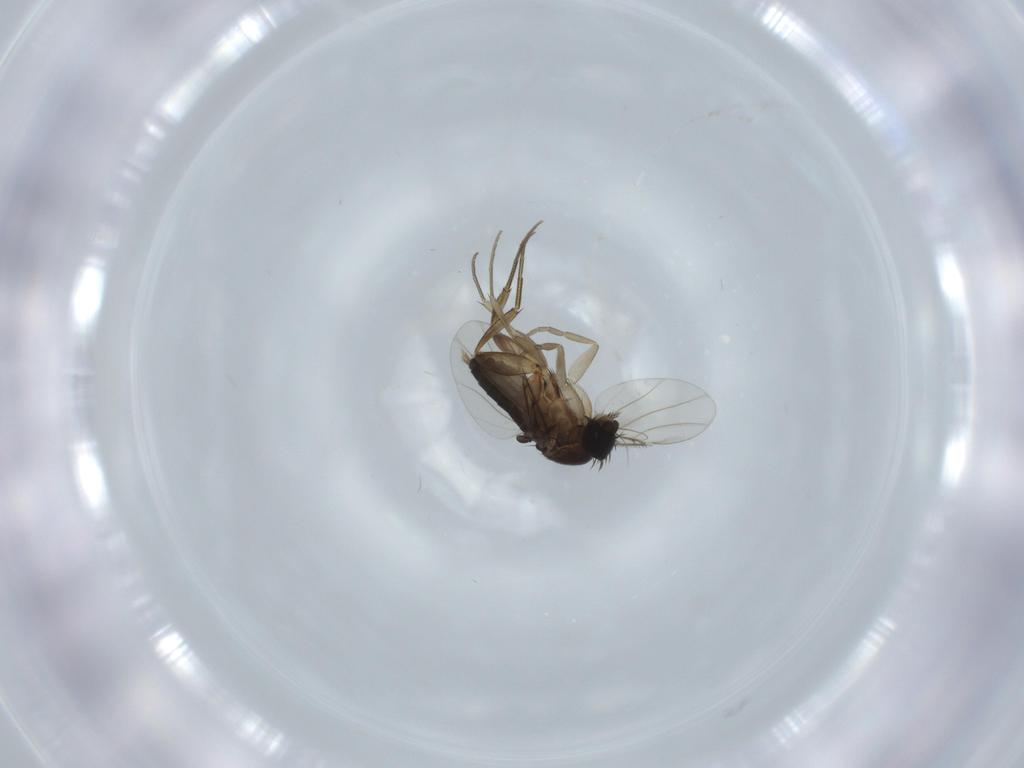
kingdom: Animalia
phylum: Arthropoda
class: Insecta
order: Diptera
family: Phoridae
